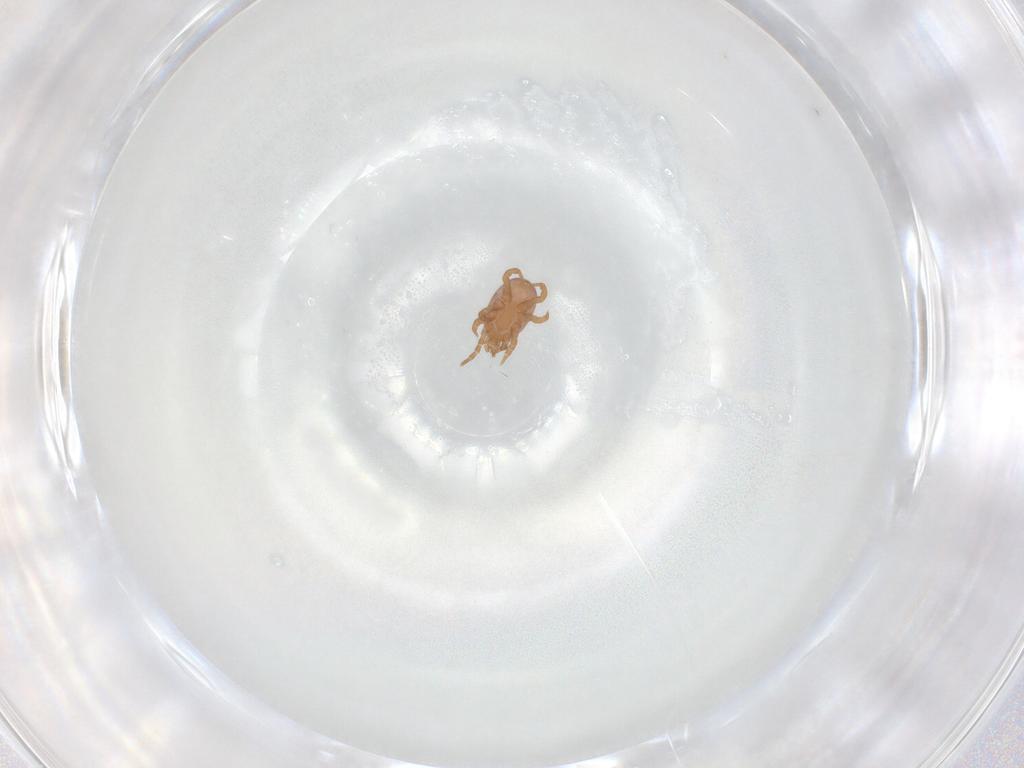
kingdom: Animalia
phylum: Arthropoda
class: Arachnida
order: Mesostigmata
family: Eviphididae
